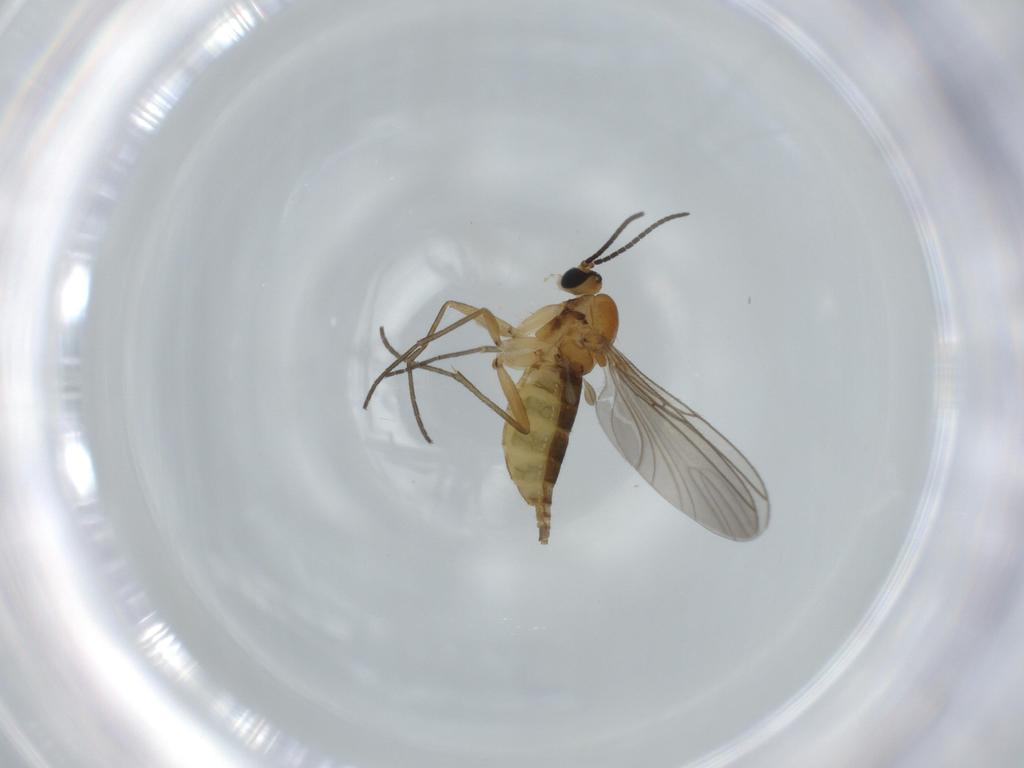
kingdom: Animalia
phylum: Arthropoda
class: Insecta
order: Diptera
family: Sciaridae
